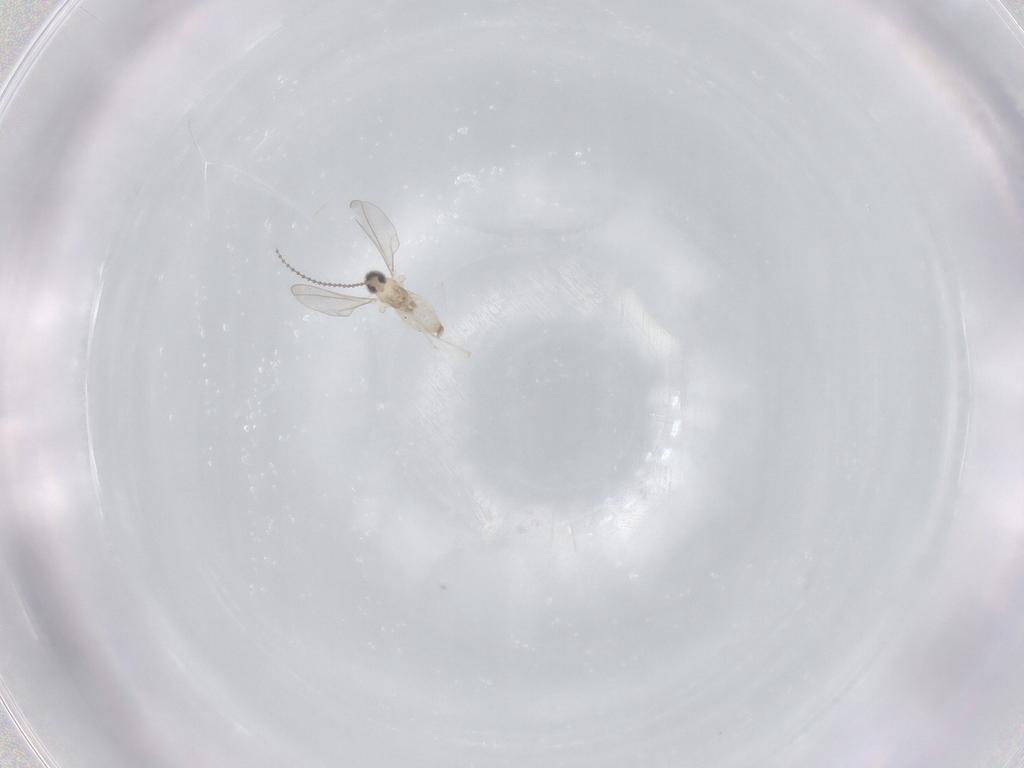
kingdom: Animalia
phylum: Arthropoda
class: Insecta
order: Diptera
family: Cecidomyiidae
